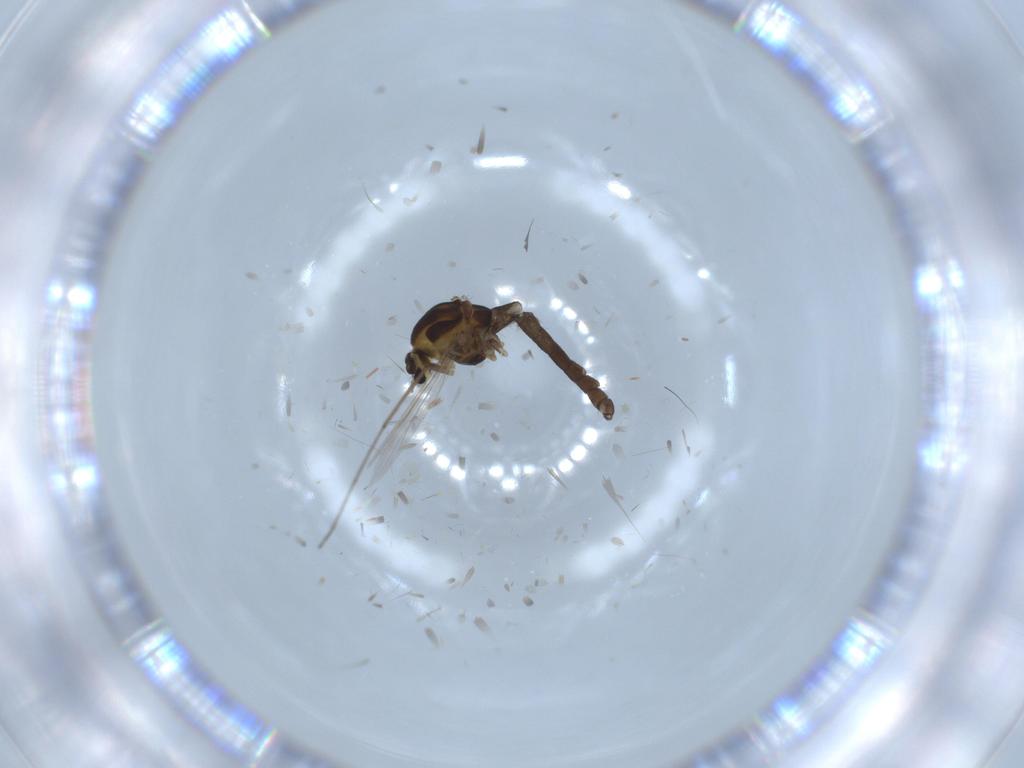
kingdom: Animalia
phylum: Arthropoda
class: Insecta
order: Diptera
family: Chironomidae
